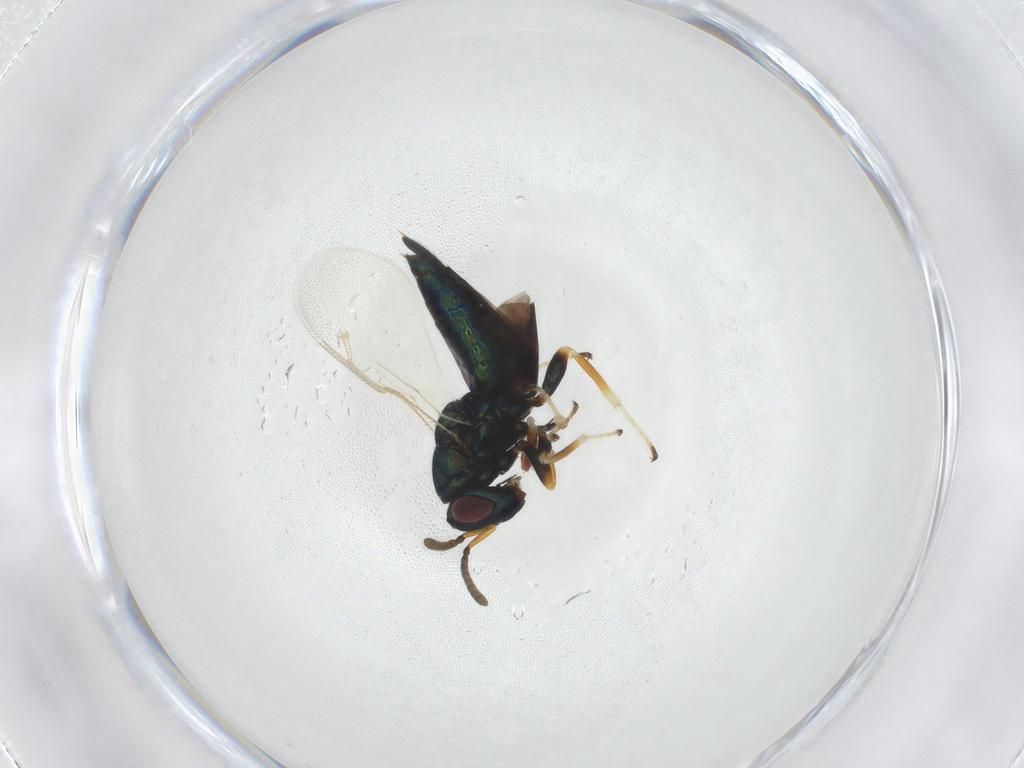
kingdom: Animalia
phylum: Arthropoda
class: Insecta
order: Hymenoptera
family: Pteromalidae
